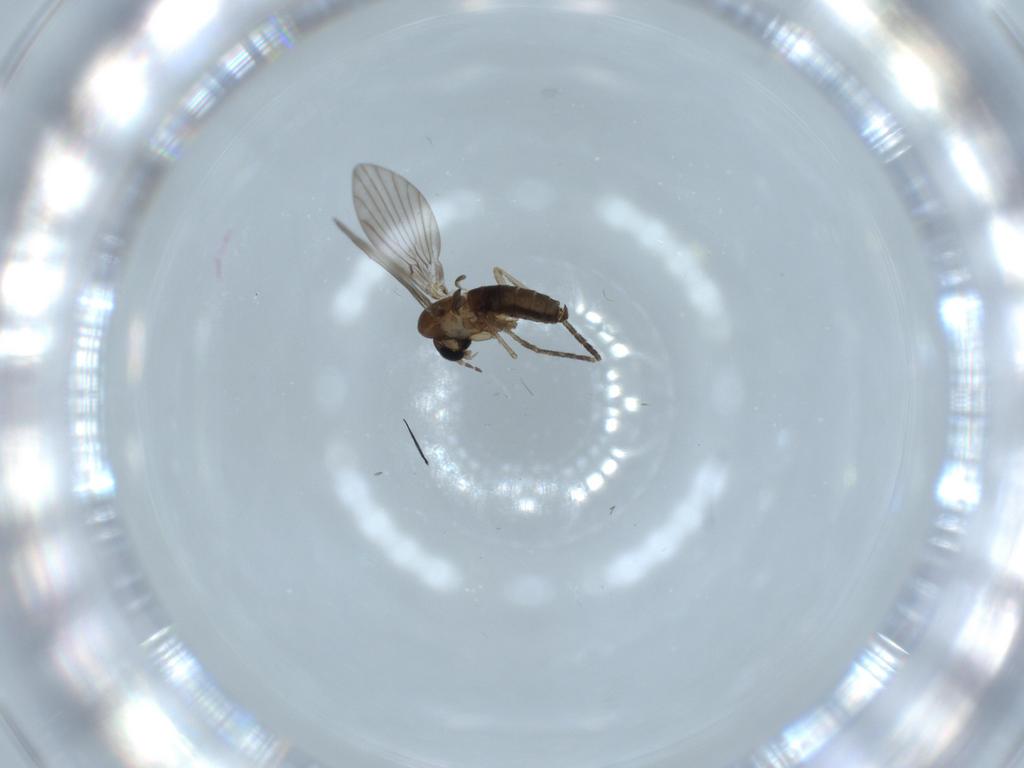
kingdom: Animalia
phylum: Arthropoda
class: Insecta
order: Diptera
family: Psychodidae
